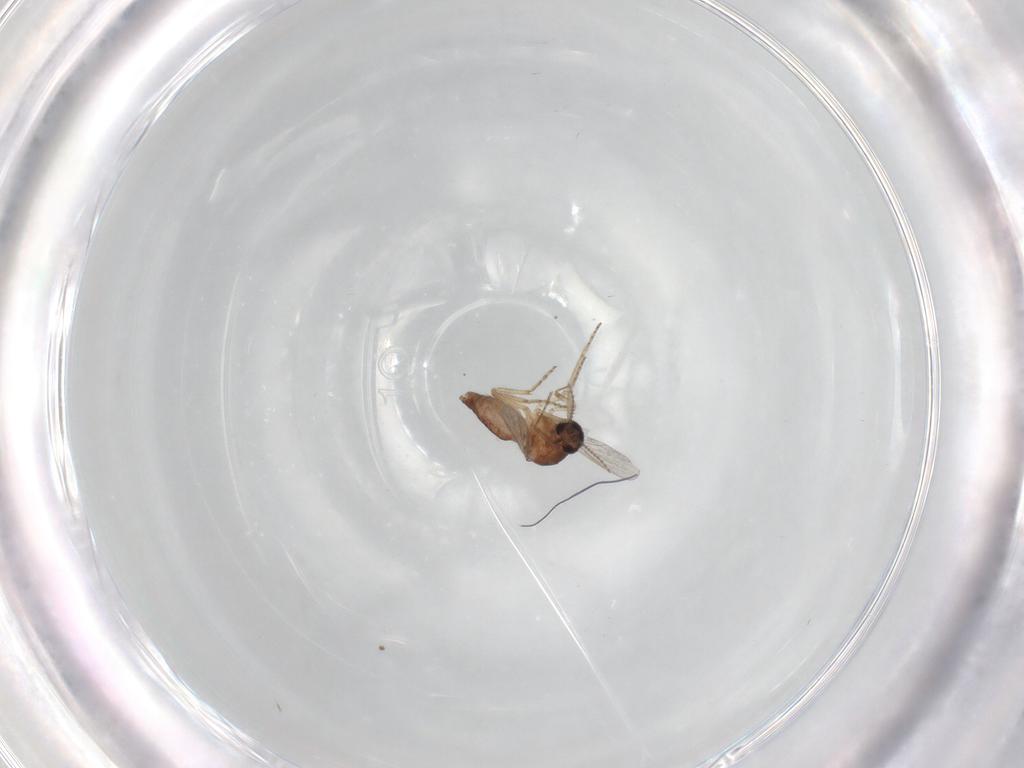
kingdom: Animalia
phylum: Arthropoda
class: Insecta
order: Diptera
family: Ceratopogonidae
